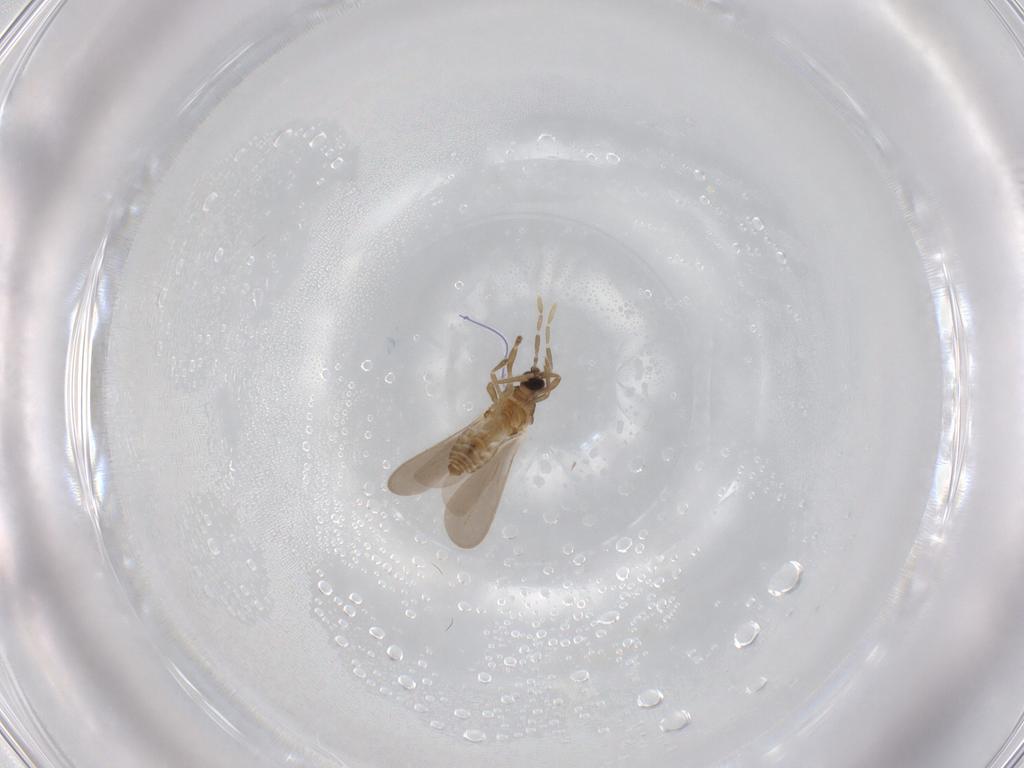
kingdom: Animalia
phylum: Arthropoda
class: Insecta
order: Hemiptera
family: Enicocephalidae
